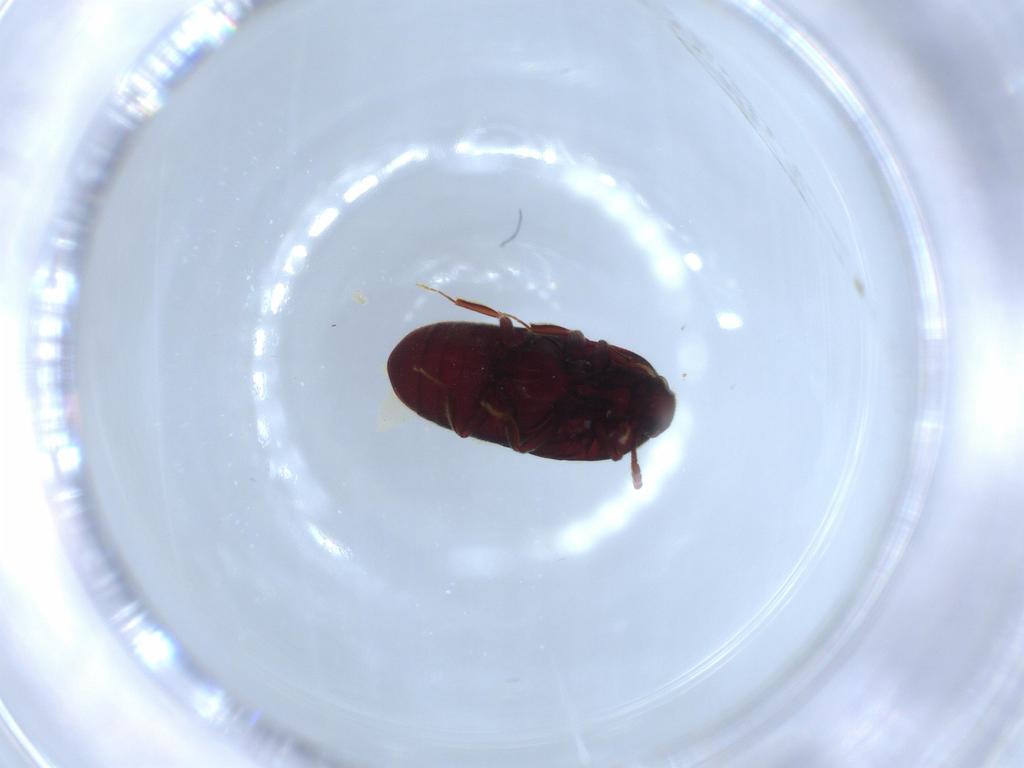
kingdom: Animalia
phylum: Arthropoda
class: Insecta
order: Coleoptera
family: Throscidae
